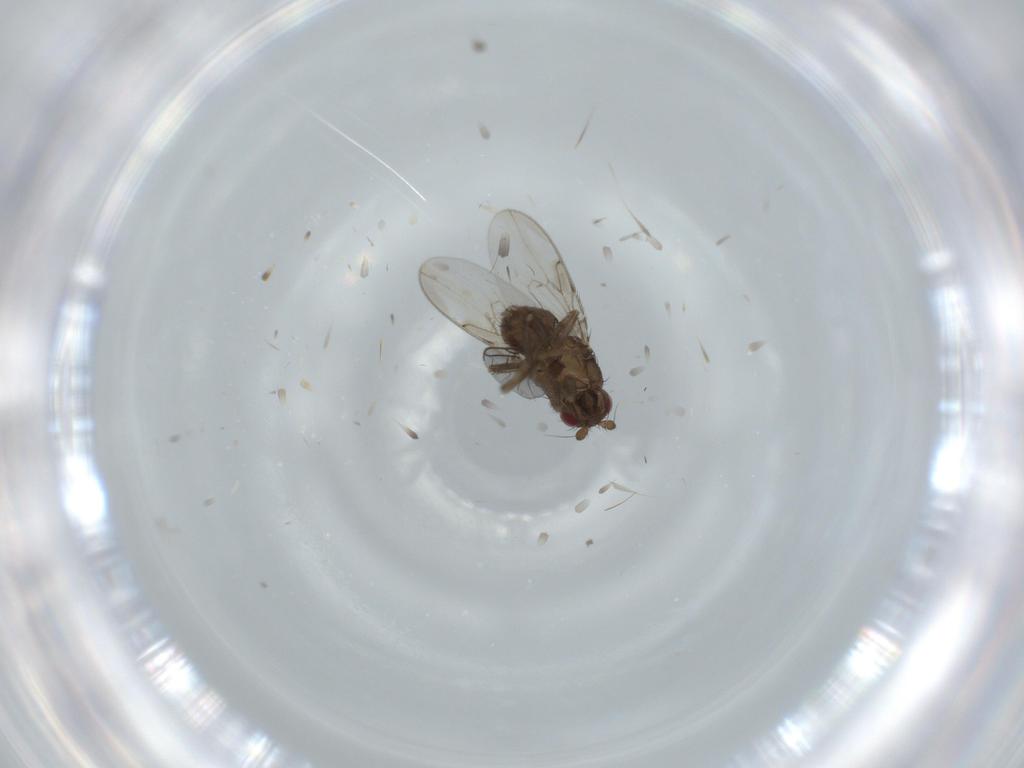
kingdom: Animalia
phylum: Arthropoda
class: Insecta
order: Diptera
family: Sphaeroceridae
